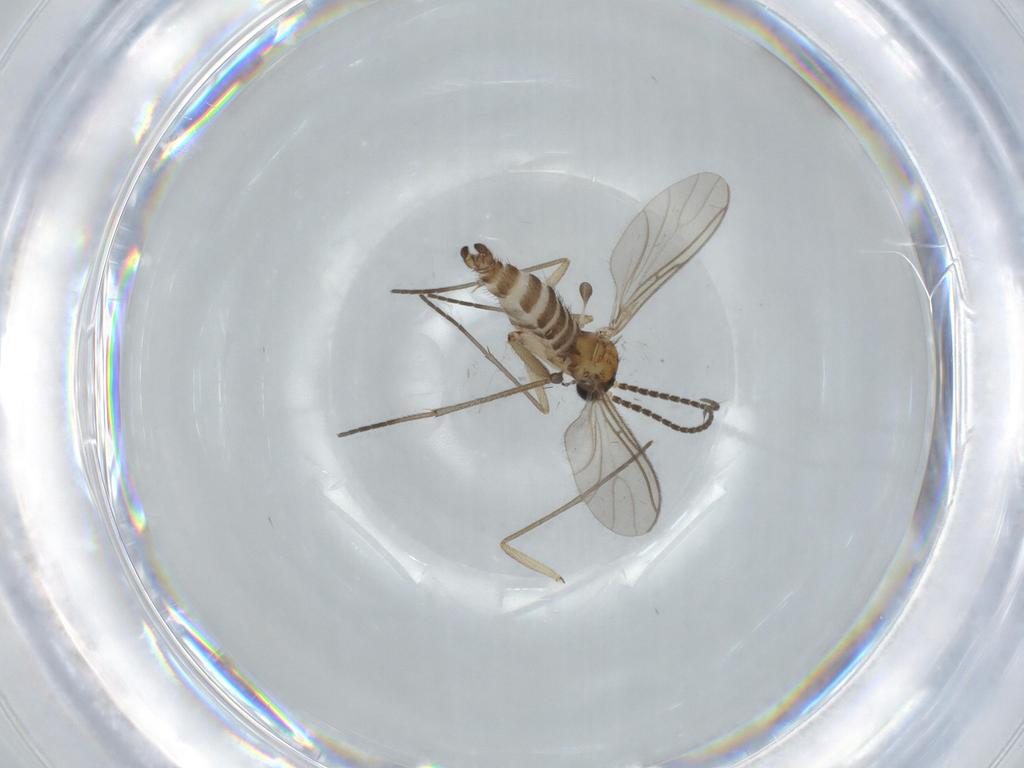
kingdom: Animalia
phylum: Arthropoda
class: Insecta
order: Diptera
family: Sciaridae
